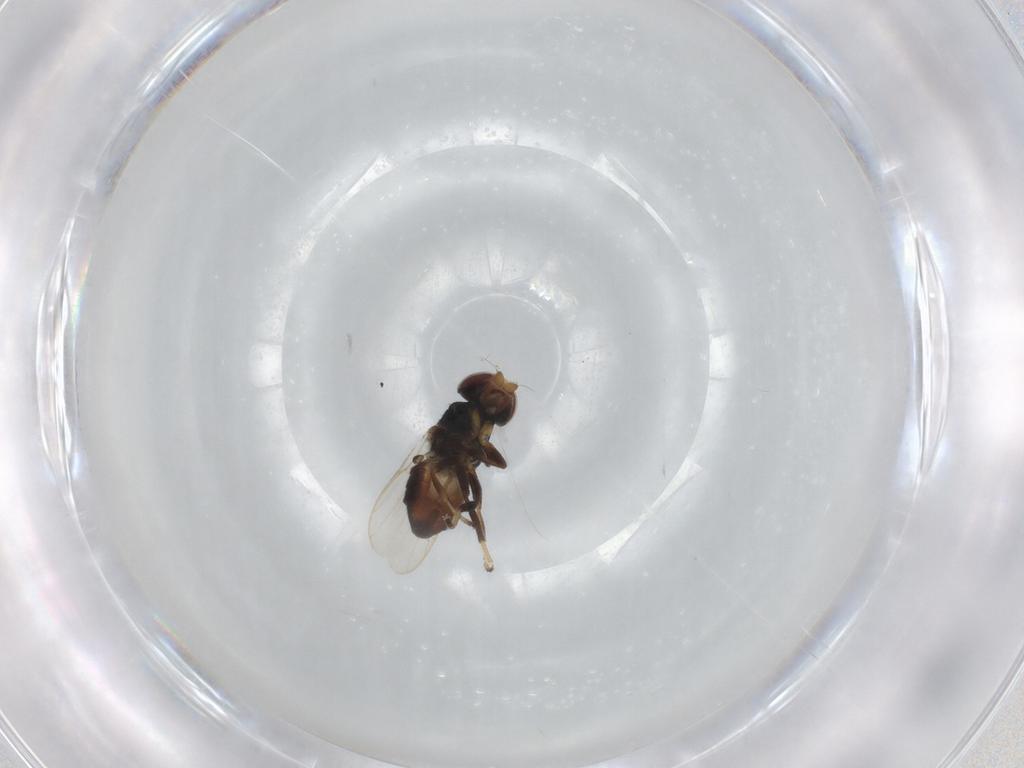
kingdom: Animalia
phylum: Arthropoda
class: Insecta
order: Diptera
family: Chloropidae
